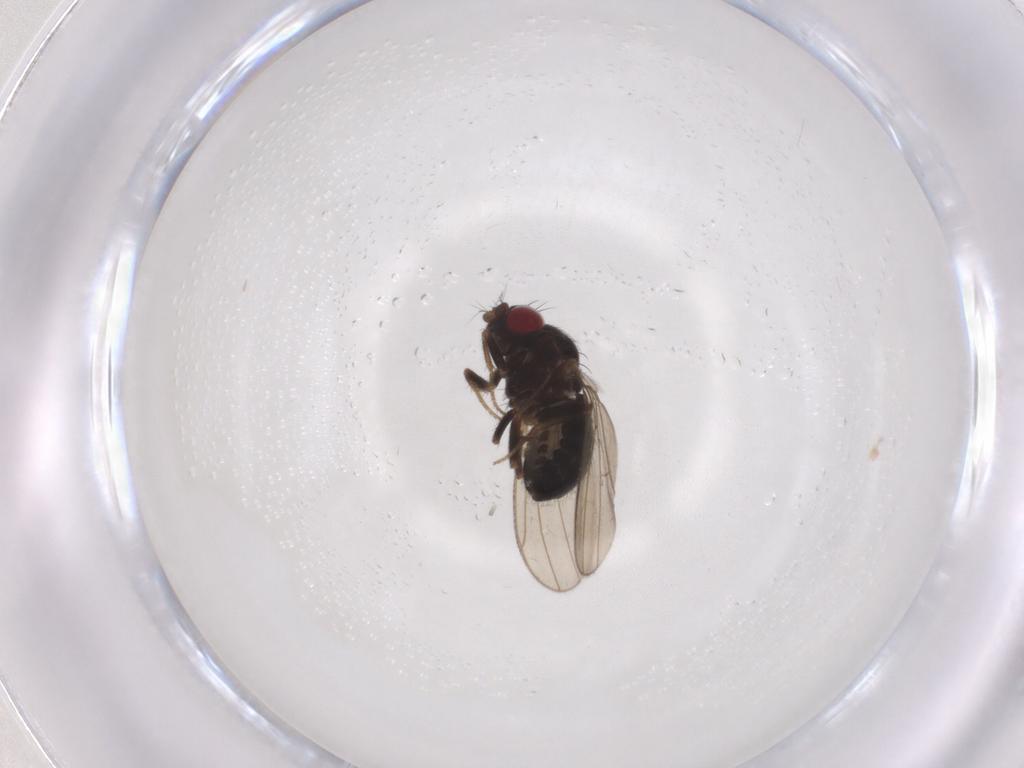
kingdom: Animalia
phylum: Arthropoda
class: Insecta
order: Diptera
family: Drosophilidae
